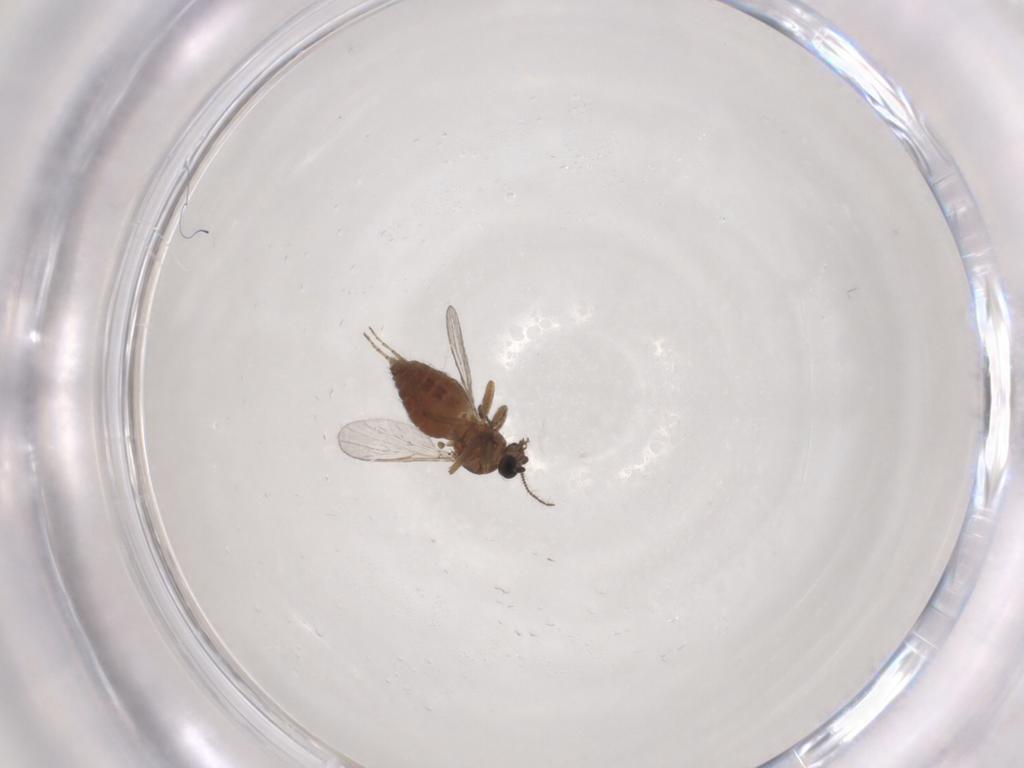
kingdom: Animalia
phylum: Arthropoda
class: Insecta
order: Diptera
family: Ceratopogonidae
